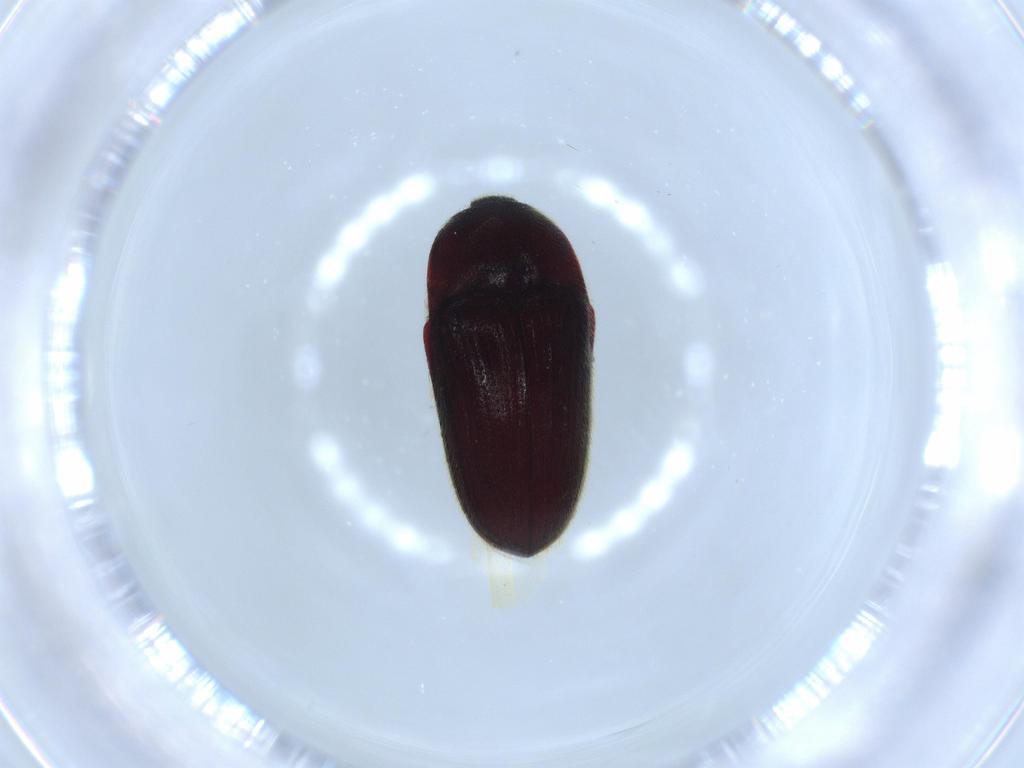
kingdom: Animalia
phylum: Arthropoda
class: Insecta
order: Coleoptera
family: Throscidae
